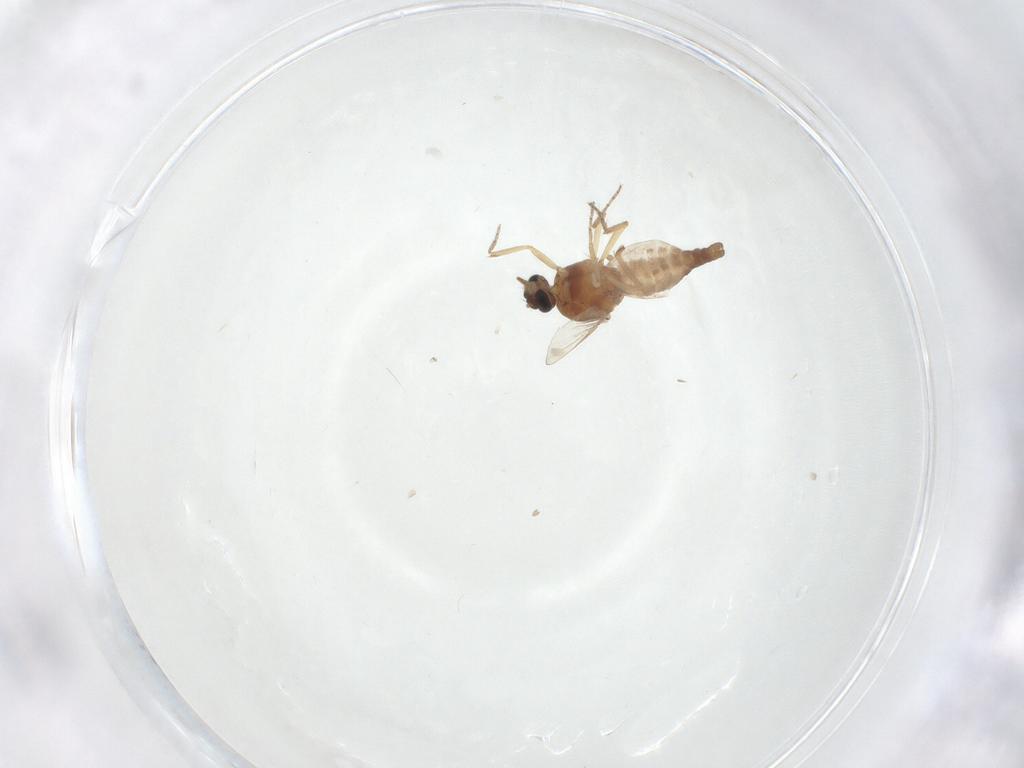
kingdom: Animalia
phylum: Arthropoda
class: Insecta
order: Diptera
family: Ceratopogonidae
